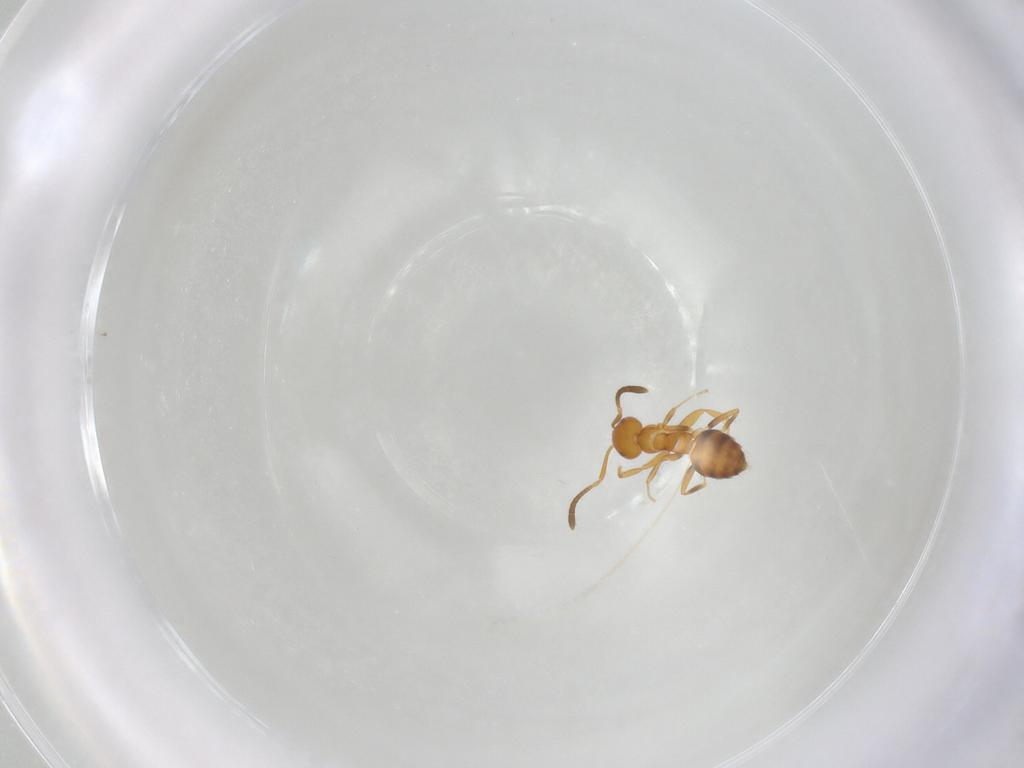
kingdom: Animalia
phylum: Arthropoda
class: Insecta
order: Hymenoptera
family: Formicidae
